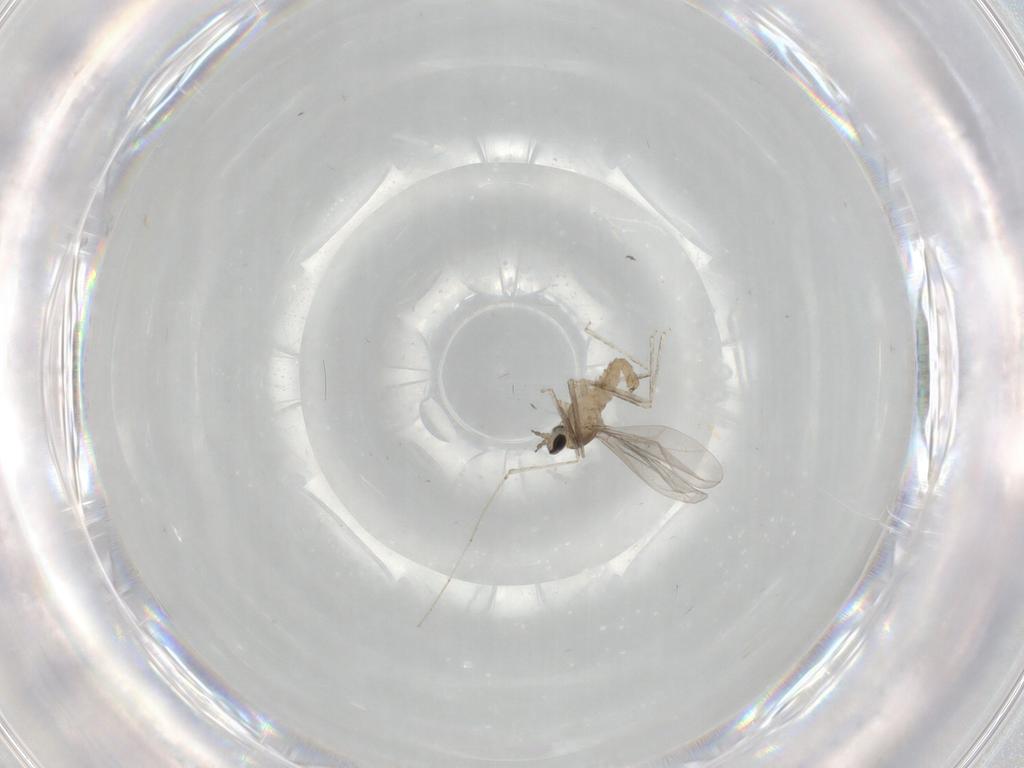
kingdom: Animalia
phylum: Arthropoda
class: Insecta
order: Diptera
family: Cecidomyiidae
